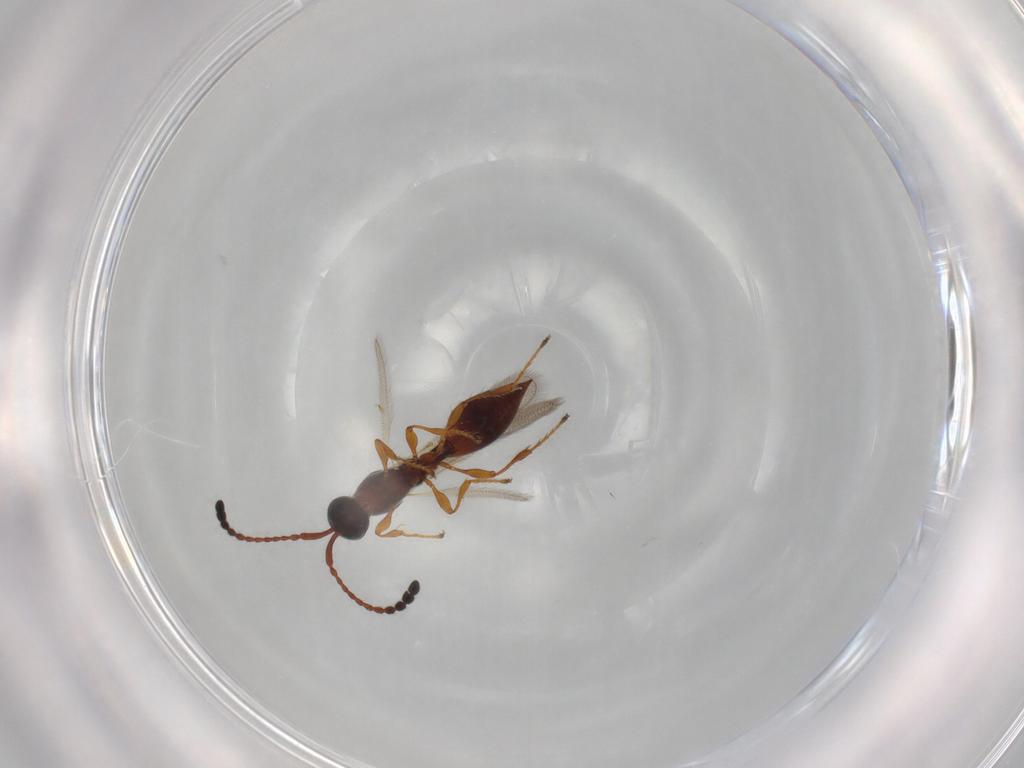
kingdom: Animalia
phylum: Arthropoda
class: Insecta
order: Hymenoptera
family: Diapriidae
